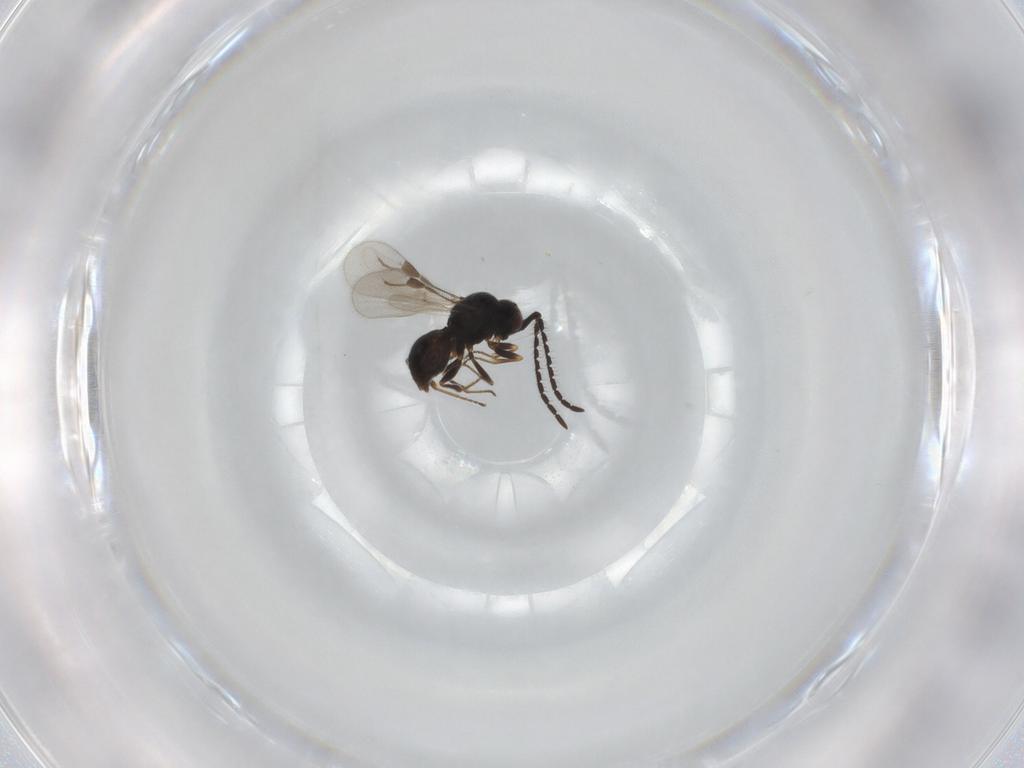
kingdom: Animalia
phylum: Arthropoda
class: Insecta
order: Hymenoptera
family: Megaspilidae
